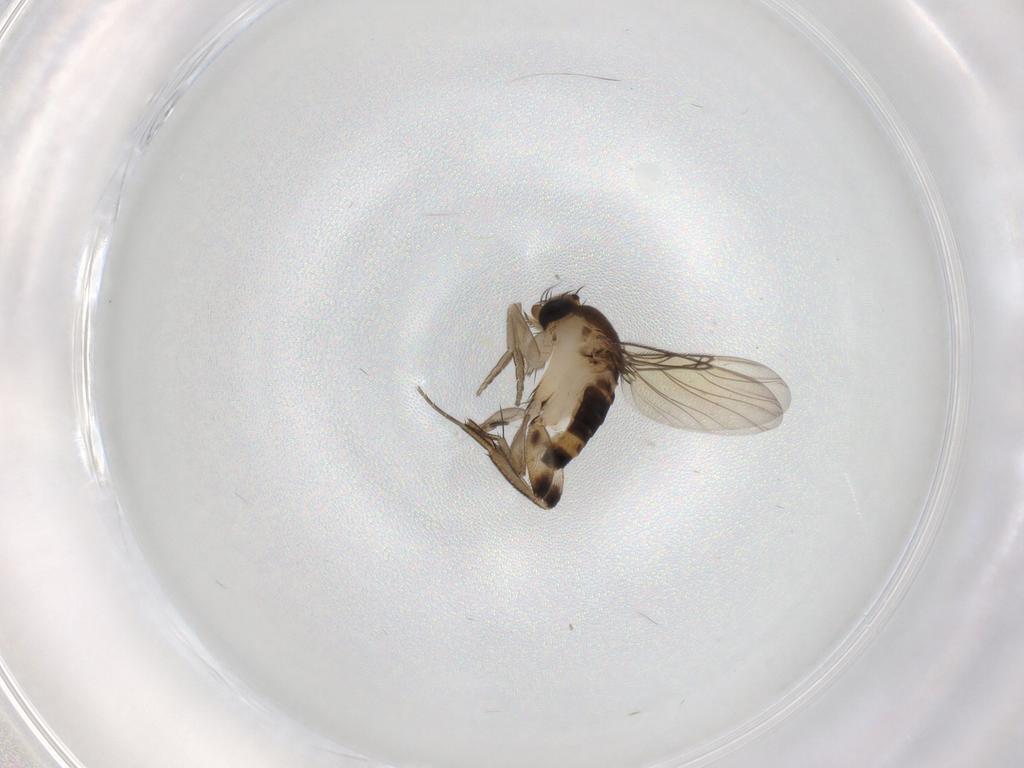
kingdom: Animalia
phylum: Arthropoda
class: Insecta
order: Diptera
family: Phoridae
